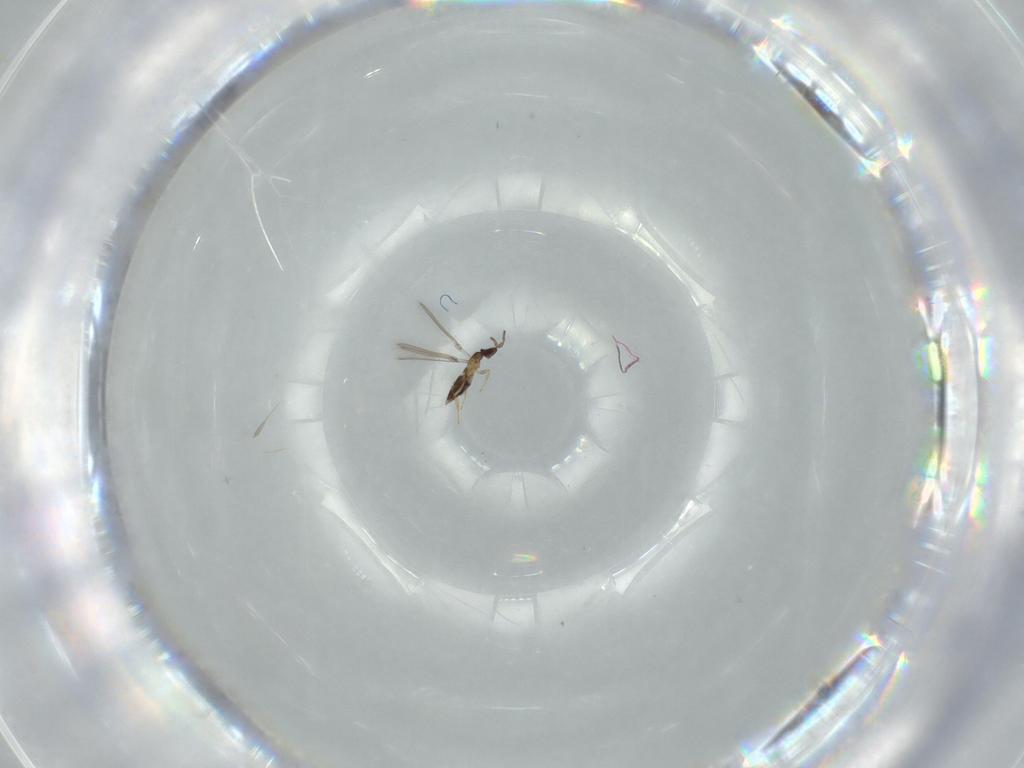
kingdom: Animalia
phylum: Arthropoda
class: Insecta
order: Hymenoptera
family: Mymaridae
